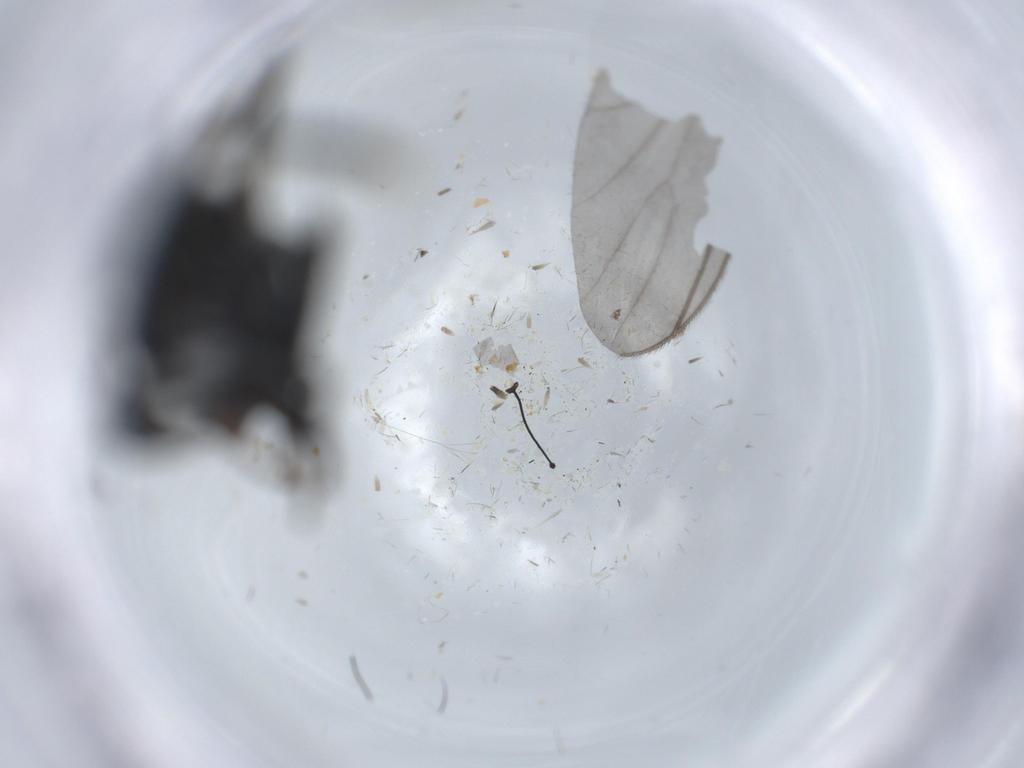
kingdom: Animalia
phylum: Arthropoda
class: Insecta
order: Hymenoptera
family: Eupelmidae
